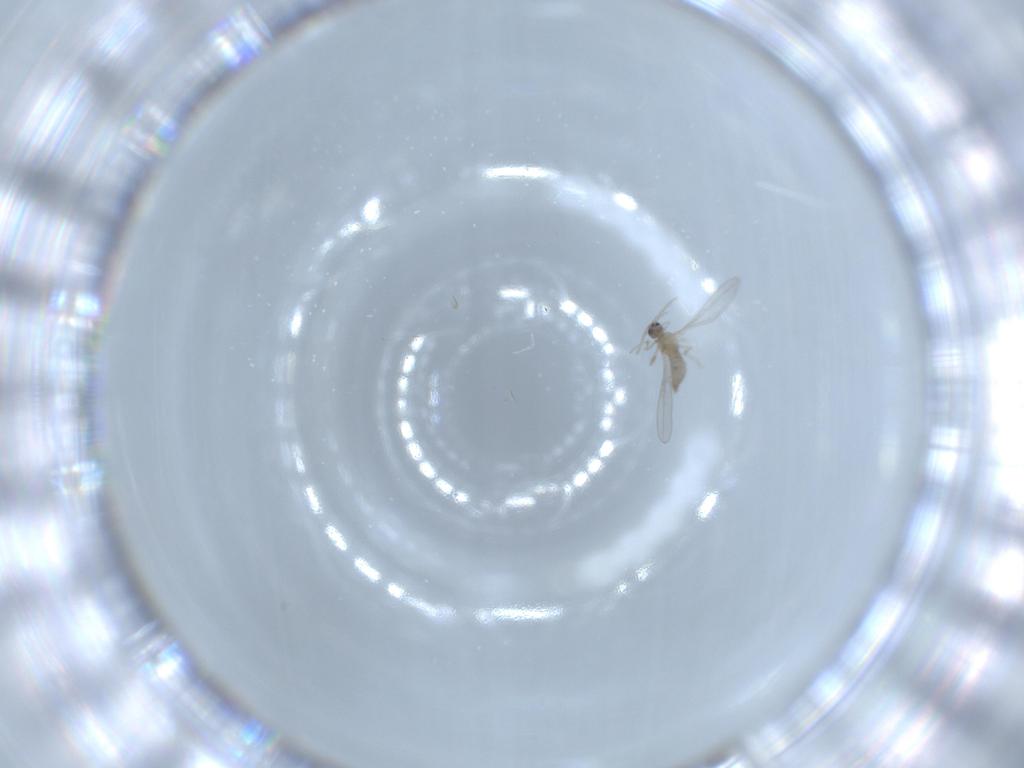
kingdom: Animalia
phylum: Arthropoda
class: Insecta
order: Diptera
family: Cecidomyiidae
